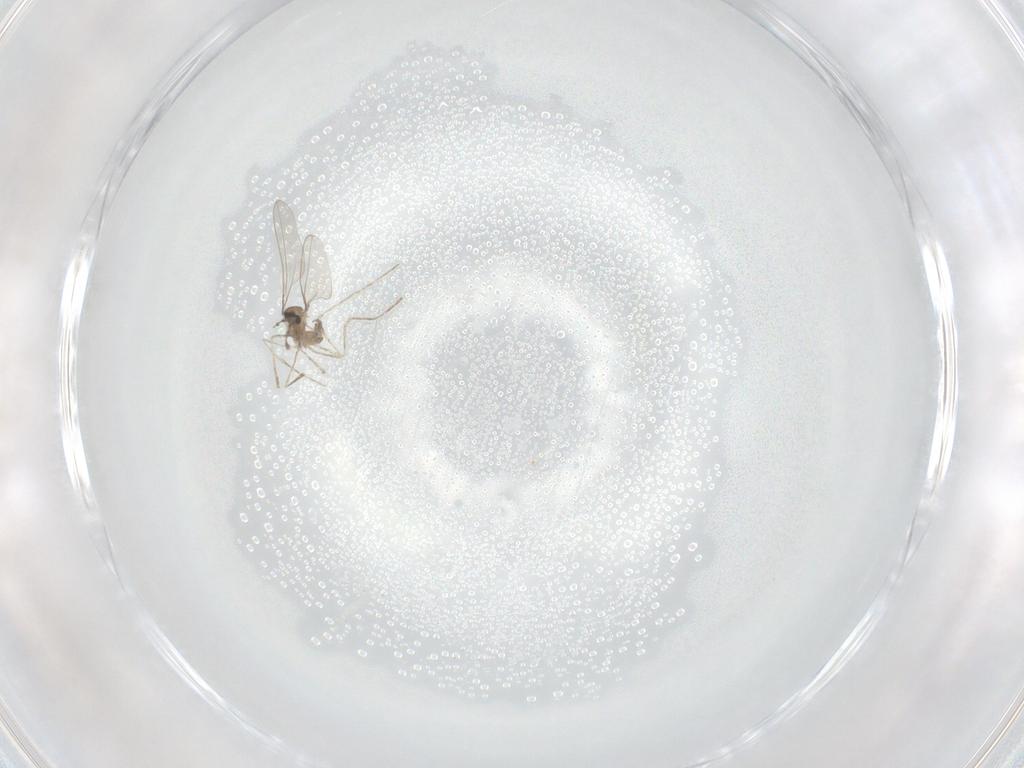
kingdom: Animalia
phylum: Arthropoda
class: Insecta
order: Diptera
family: Cecidomyiidae
